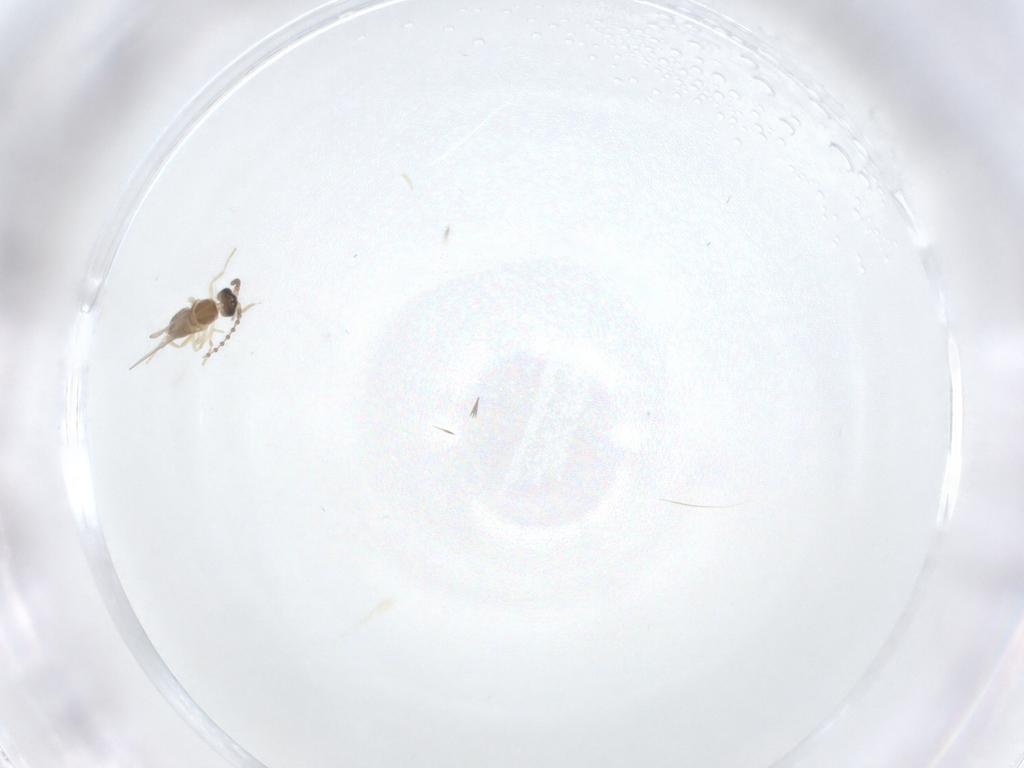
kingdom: Animalia
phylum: Arthropoda
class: Insecta
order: Diptera
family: Cecidomyiidae
